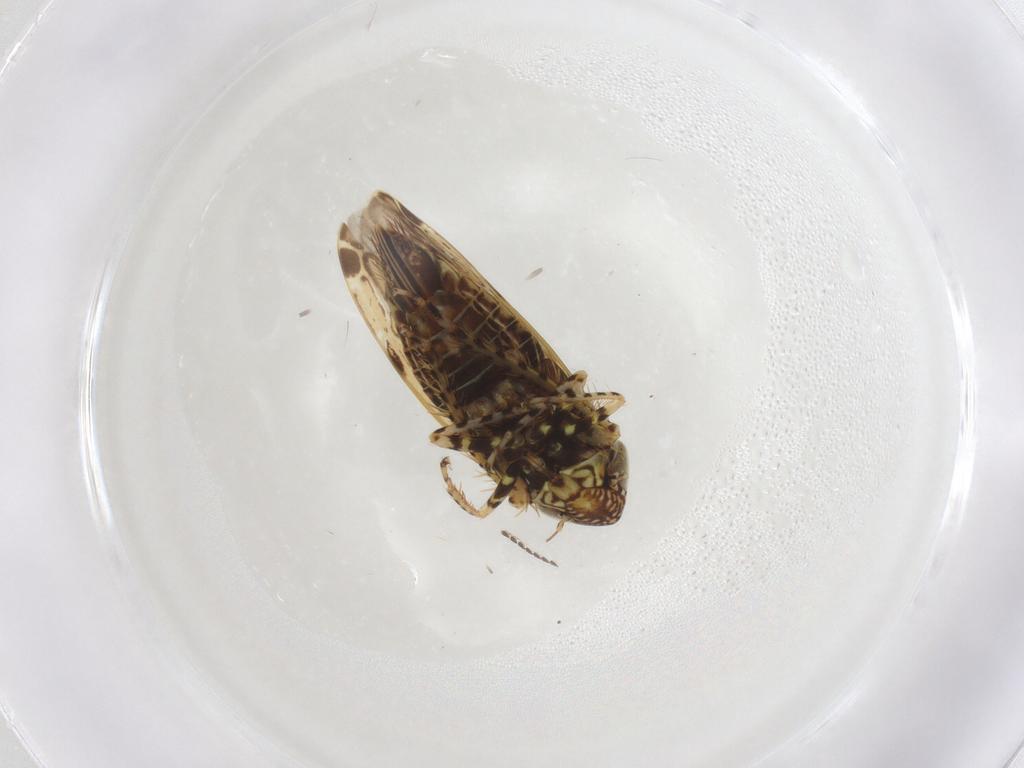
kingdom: Animalia
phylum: Arthropoda
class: Insecta
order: Hemiptera
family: Cicadellidae
